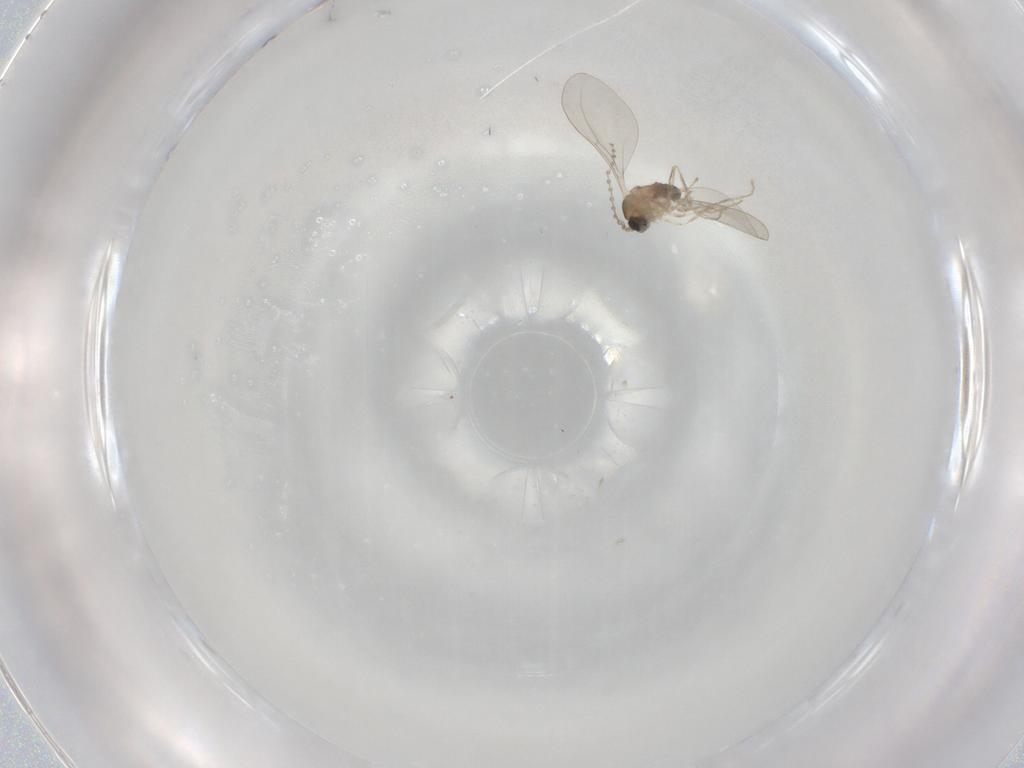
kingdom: Animalia
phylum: Arthropoda
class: Insecta
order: Diptera
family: Cecidomyiidae
